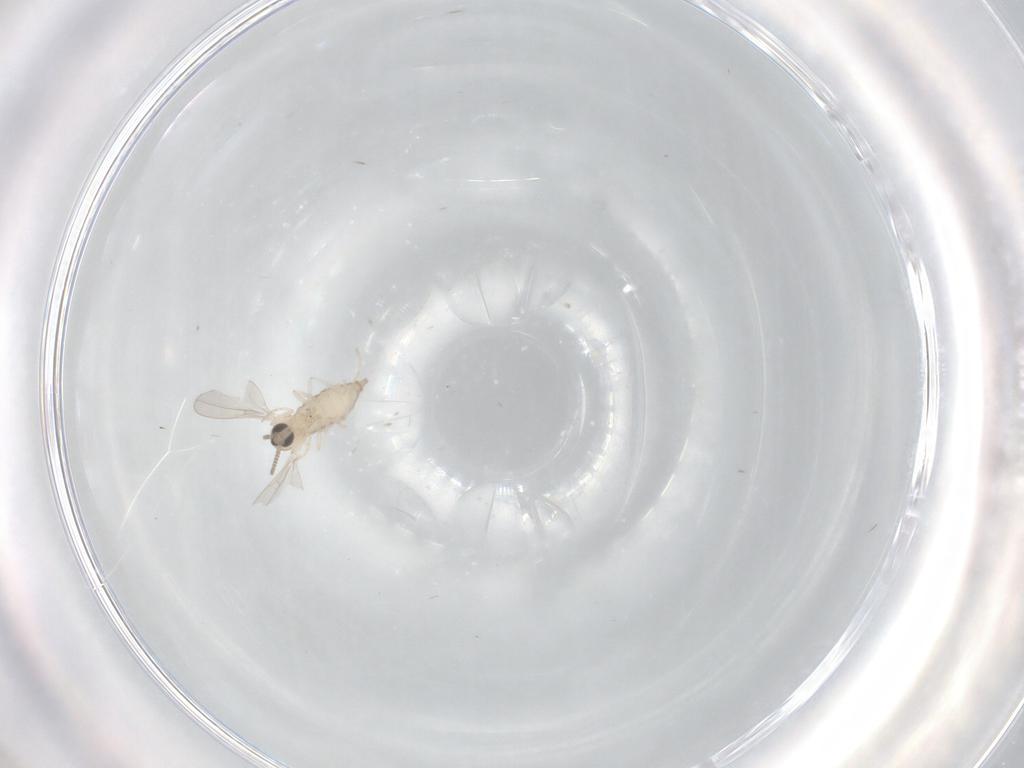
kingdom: Animalia
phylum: Arthropoda
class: Insecta
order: Diptera
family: Cecidomyiidae
